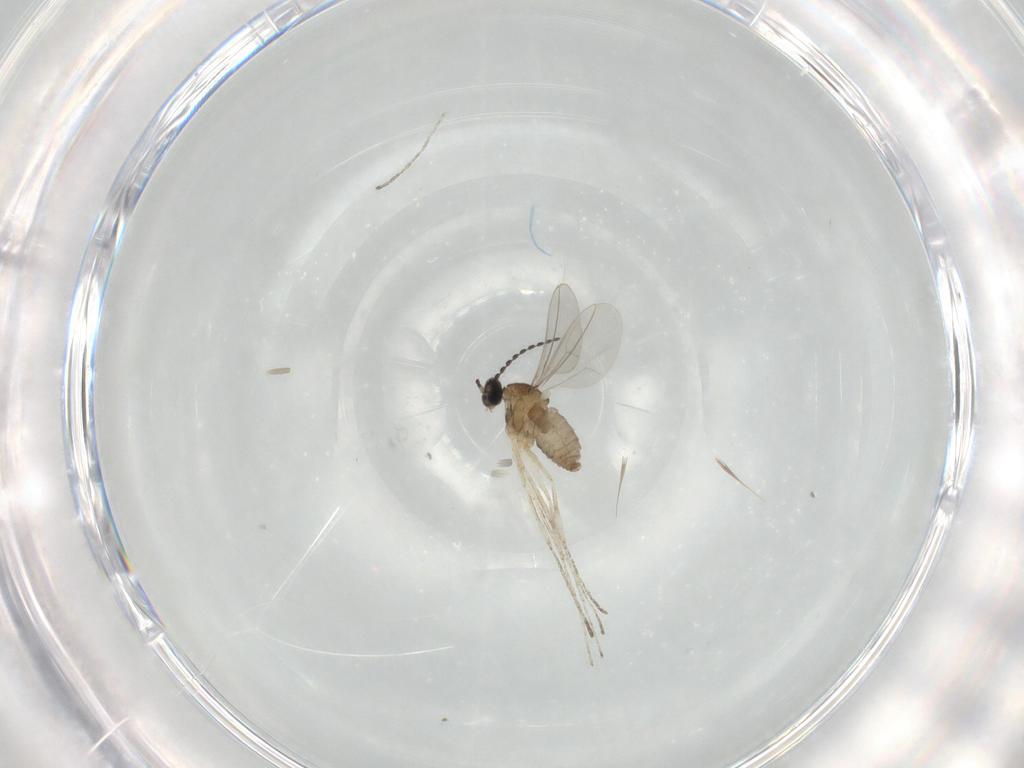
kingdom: Animalia
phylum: Arthropoda
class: Insecta
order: Diptera
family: Cecidomyiidae
